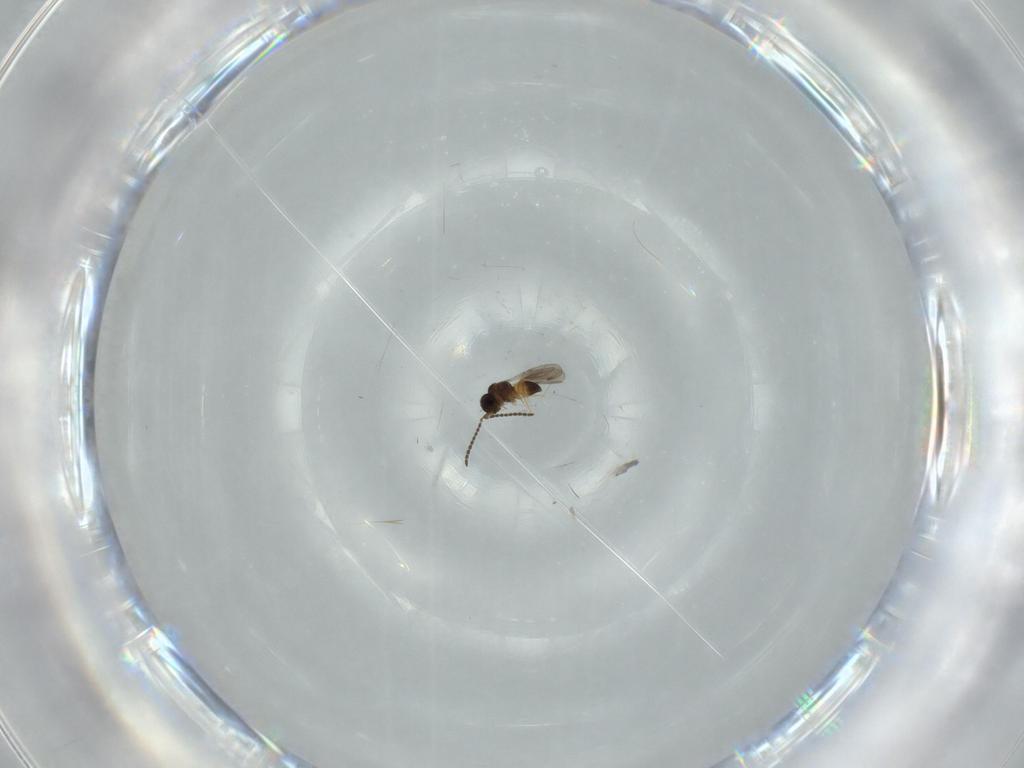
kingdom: Animalia
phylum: Arthropoda
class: Insecta
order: Hymenoptera
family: Ceraphronidae
